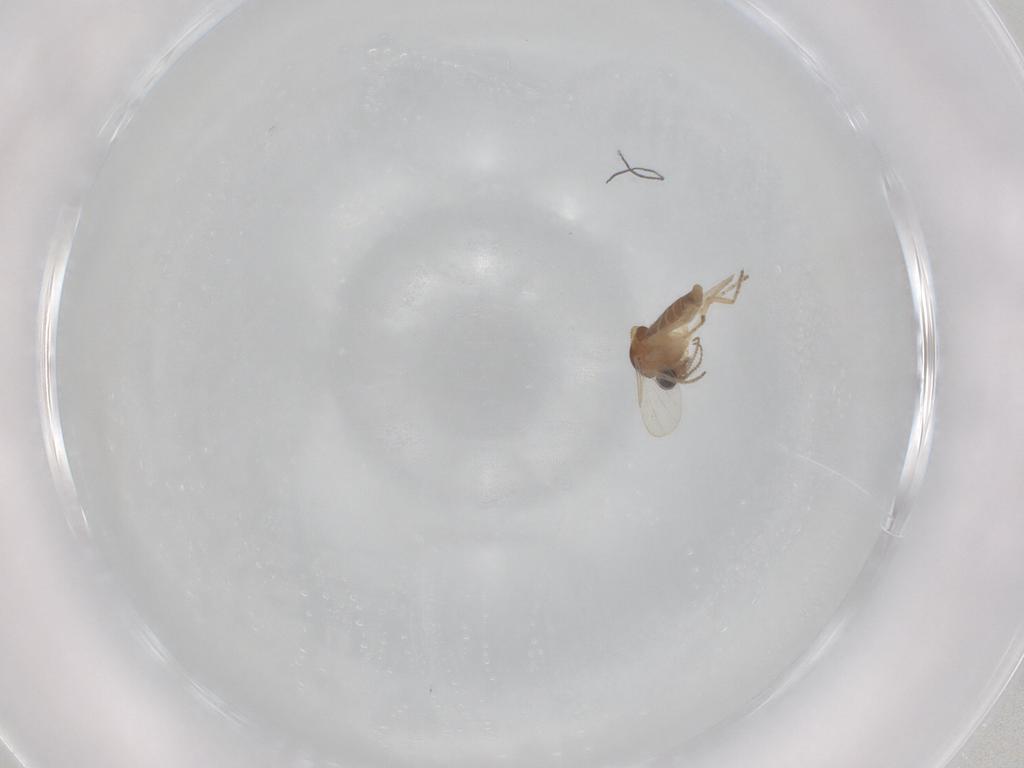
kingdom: Animalia
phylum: Arthropoda
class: Insecta
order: Diptera
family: Ceratopogonidae
